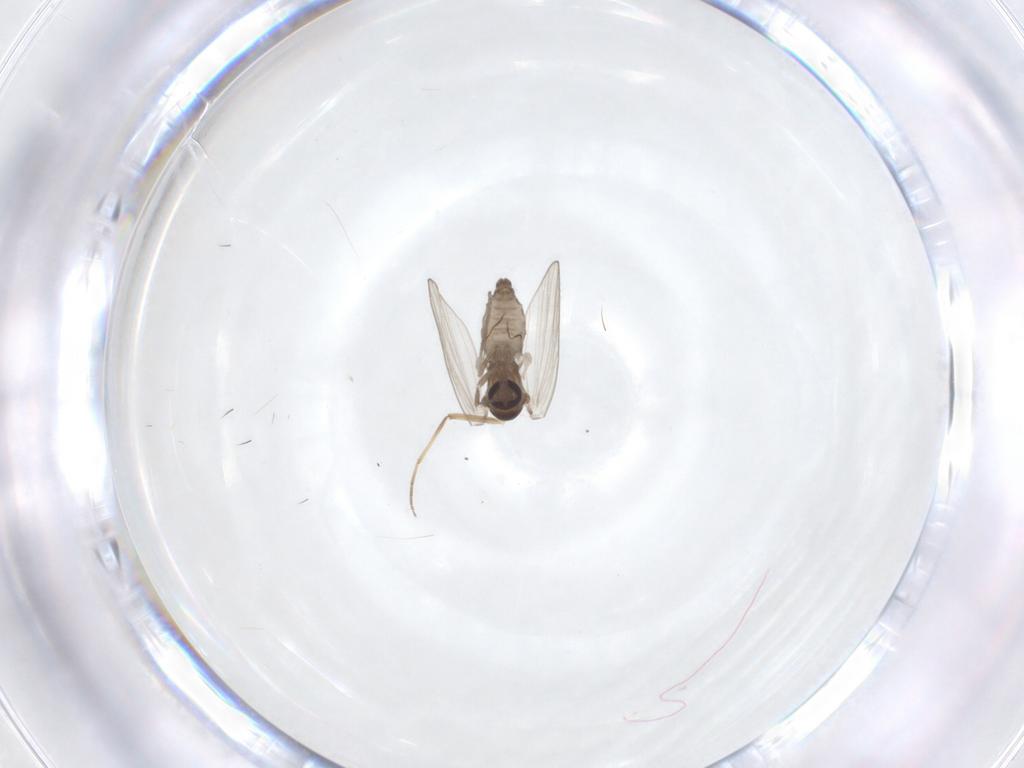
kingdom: Animalia
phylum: Arthropoda
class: Insecta
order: Diptera
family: Psychodidae
